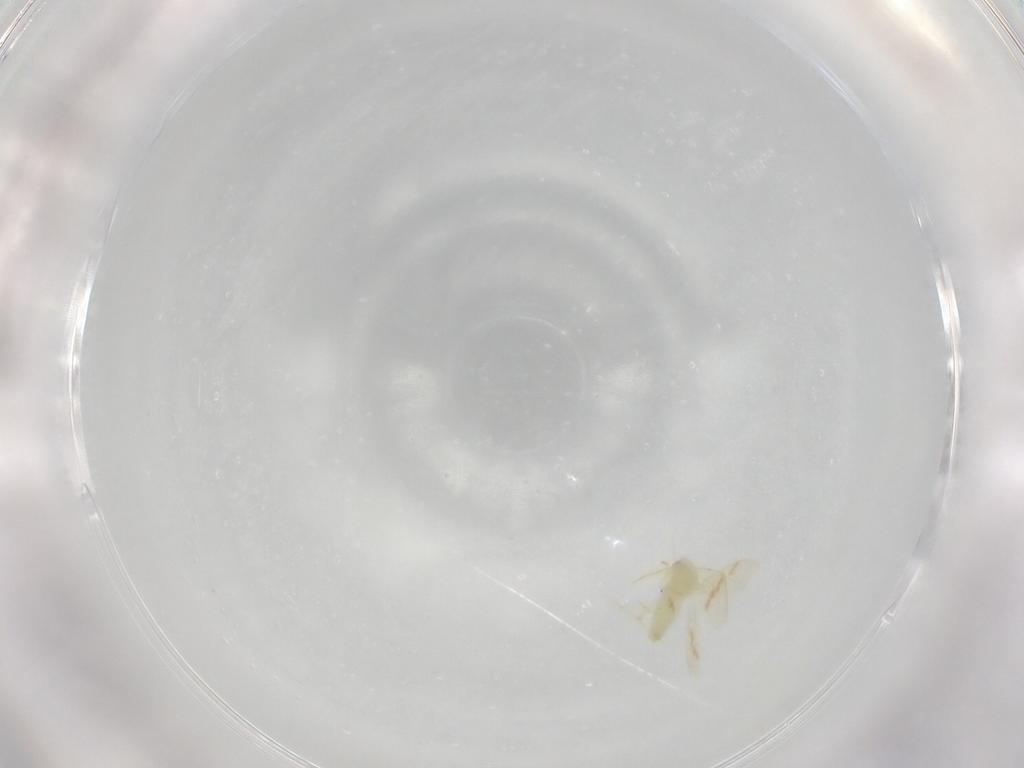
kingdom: Animalia
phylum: Arthropoda
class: Insecta
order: Hemiptera
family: Aleyrodidae
